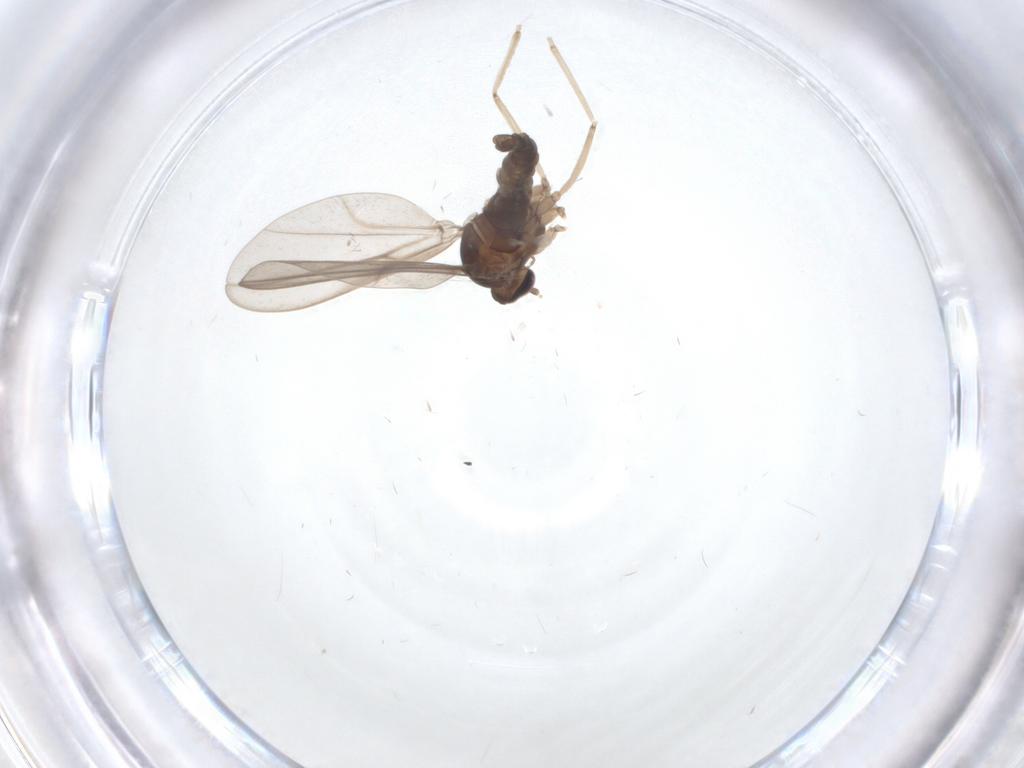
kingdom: Animalia
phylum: Arthropoda
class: Insecta
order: Diptera
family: Cecidomyiidae
